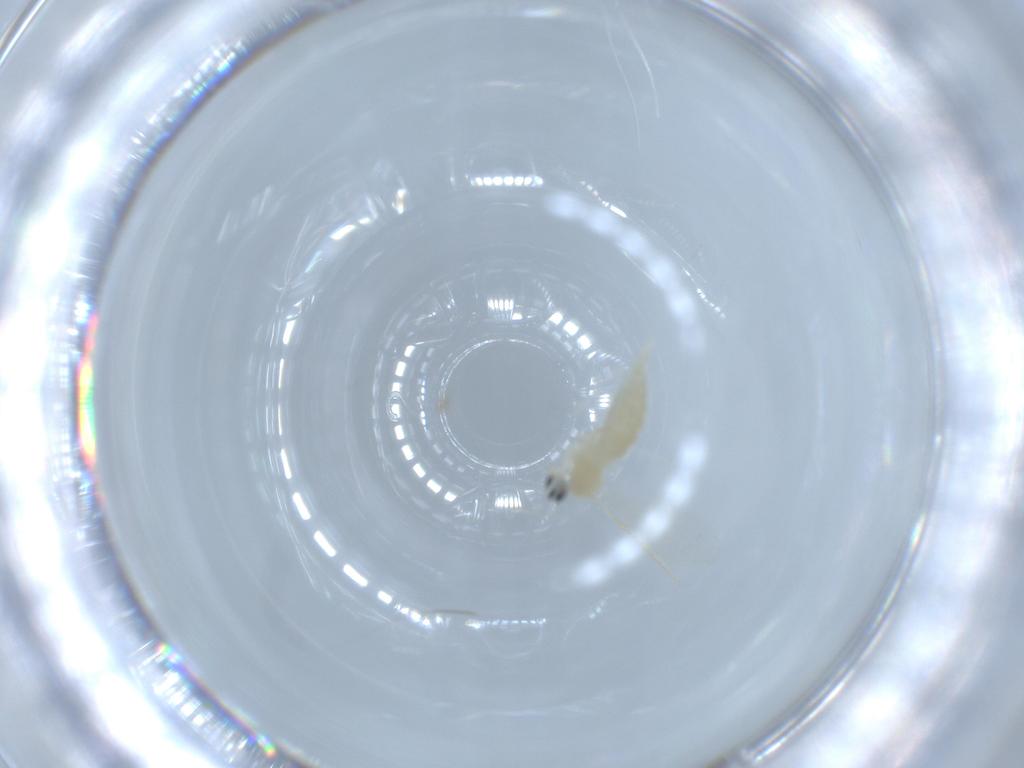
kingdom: Animalia
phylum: Arthropoda
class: Insecta
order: Diptera
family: Cecidomyiidae
